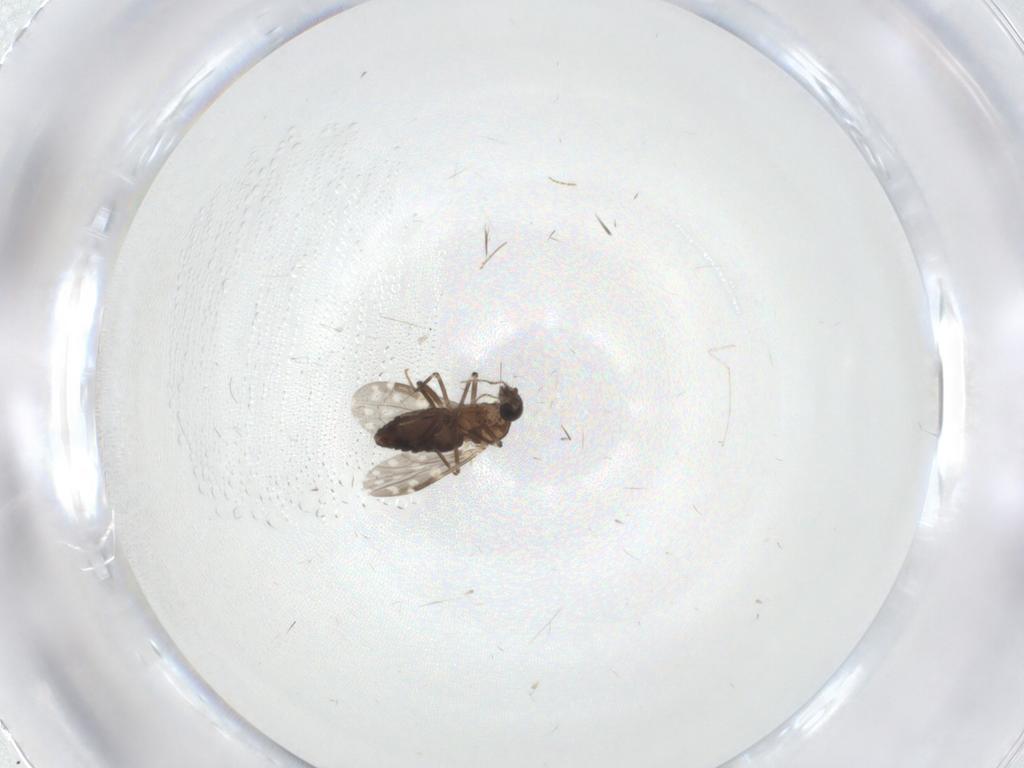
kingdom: Animalia
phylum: Arthropoda
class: Insecta
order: Diptera
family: Ceratopogonidae
